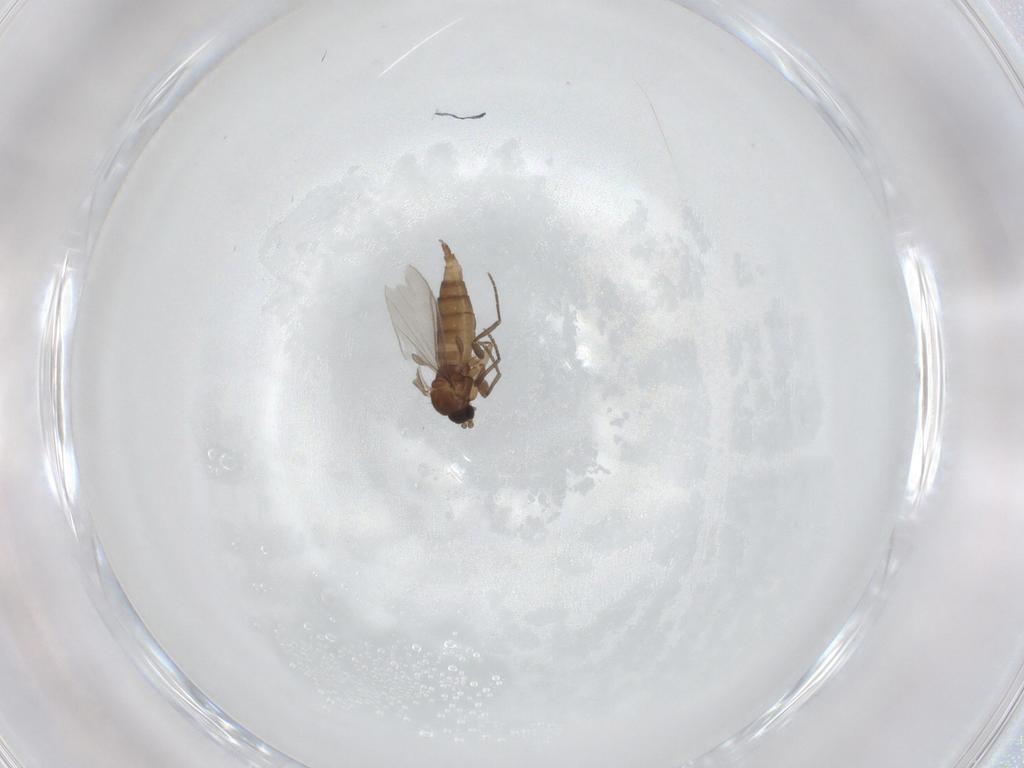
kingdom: Animalia
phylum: Arthropoda
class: Insecta
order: Diptera
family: Sciaridae
